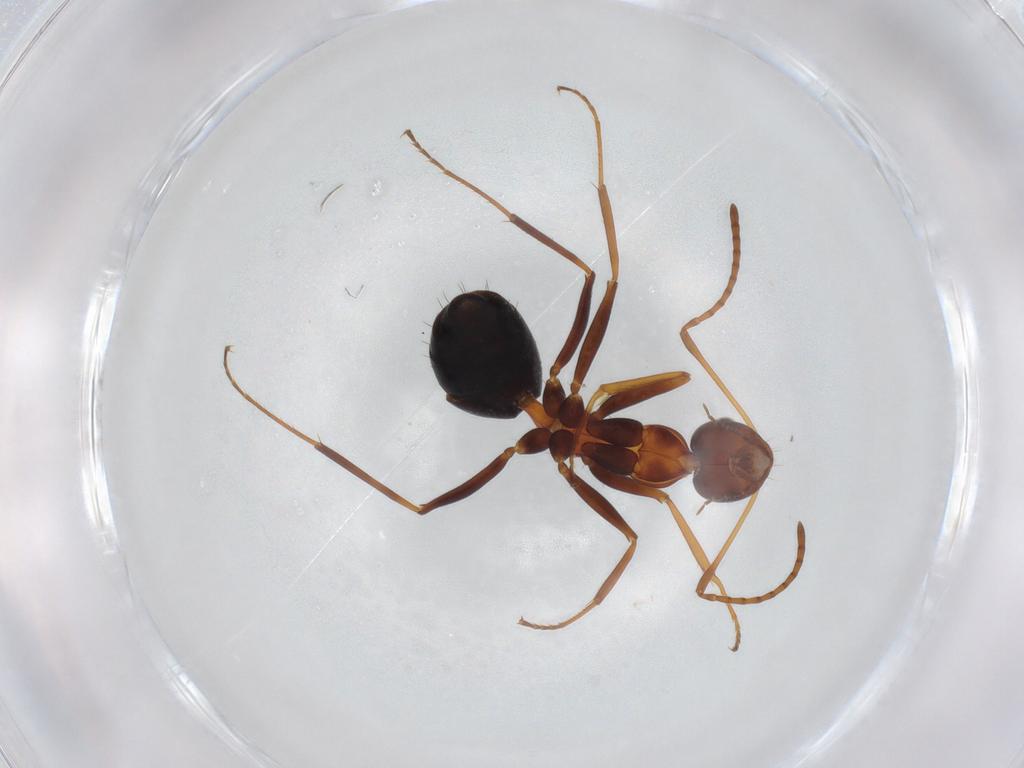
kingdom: Animalia
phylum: Arthropoda
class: Insecta
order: Hymenoptera
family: Formicidae
